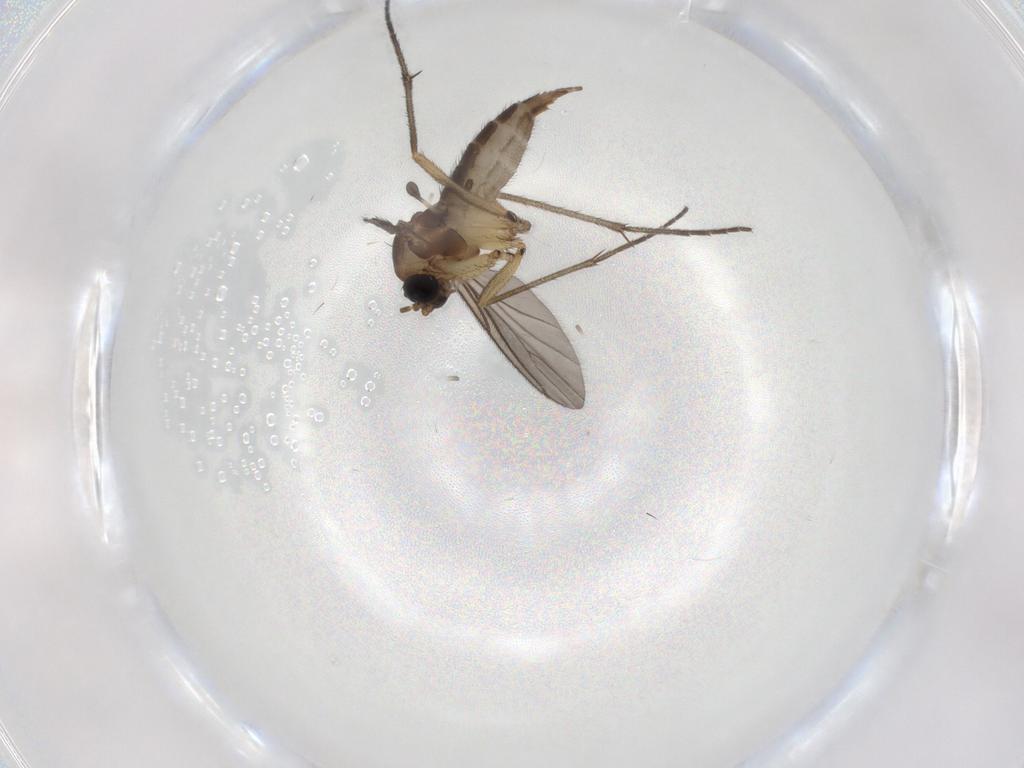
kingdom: Animalia
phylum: Arthropoda
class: Insecta
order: Diptera
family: Sciaridae
